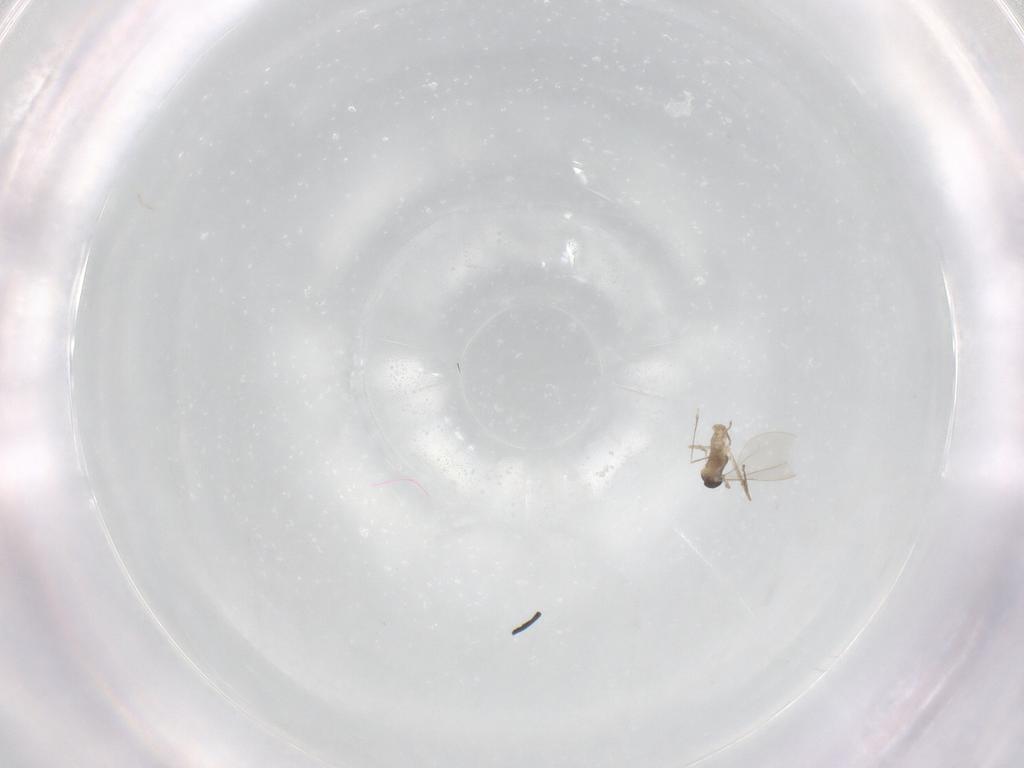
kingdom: Animalia
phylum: Arthropoda
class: Insecta
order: Diptera
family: Cecidomyiidae
